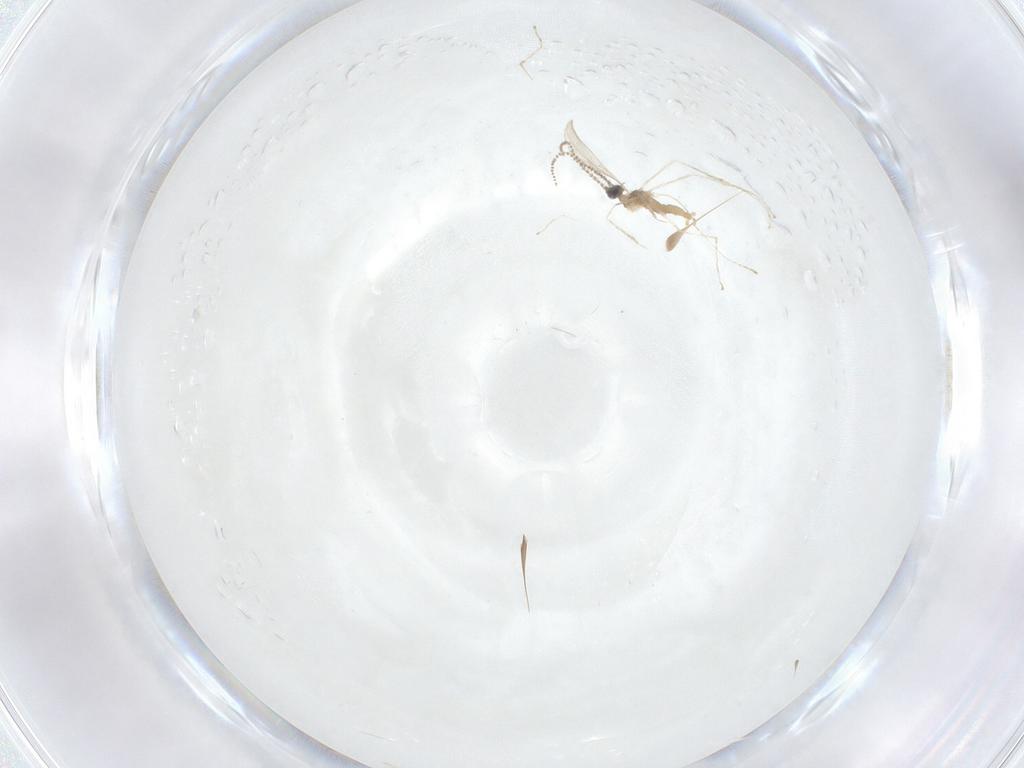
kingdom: Animalia
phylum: Arthropoda
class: Insecta
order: Diptera
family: Cecidomyiidae
